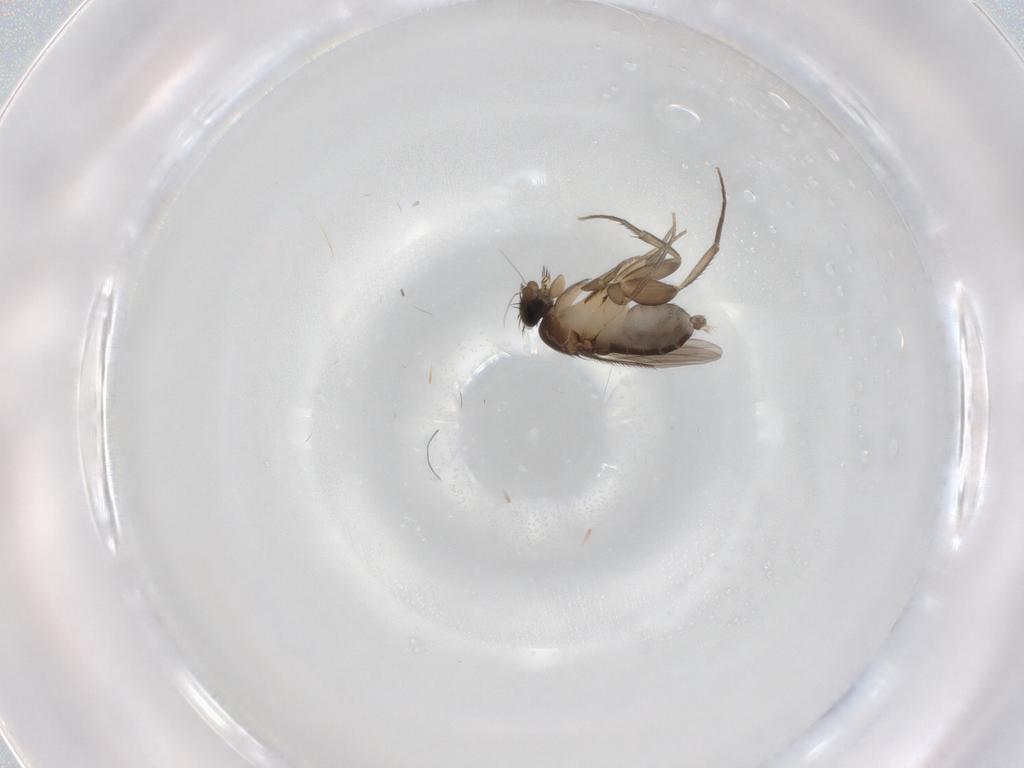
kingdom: Animalia
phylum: Arthropoda
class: Insecta
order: Diptera
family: Phoridae
